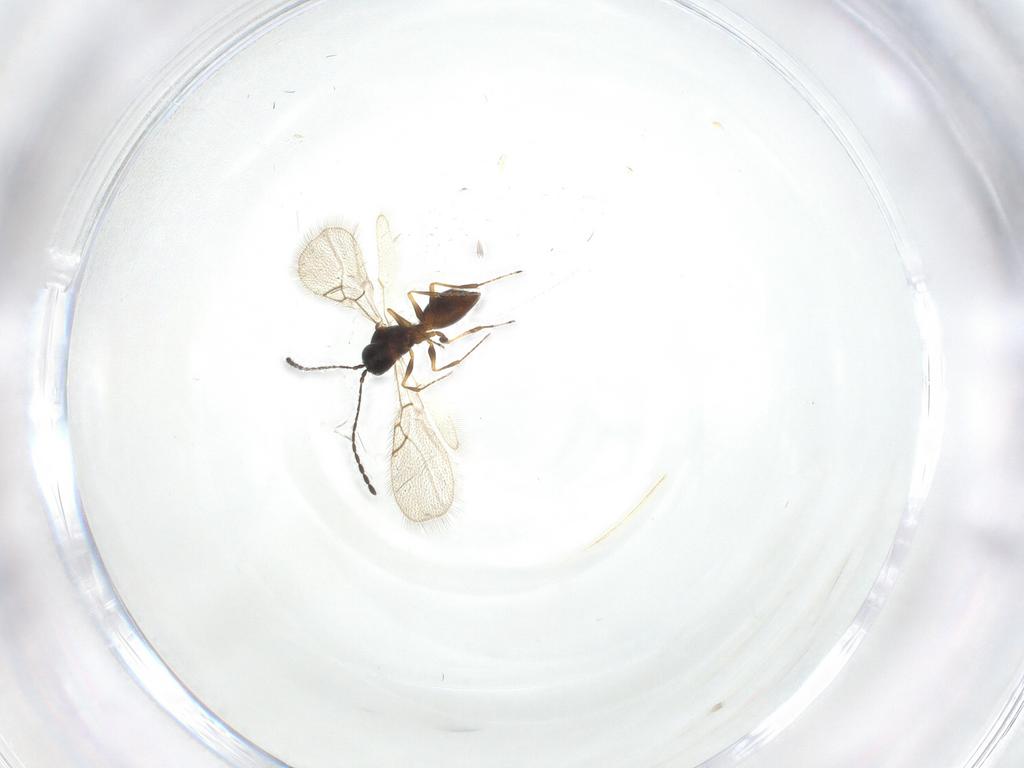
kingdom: Animalia
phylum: Arthropoda
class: Insecta
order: Hymenoptera
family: Figitidae
